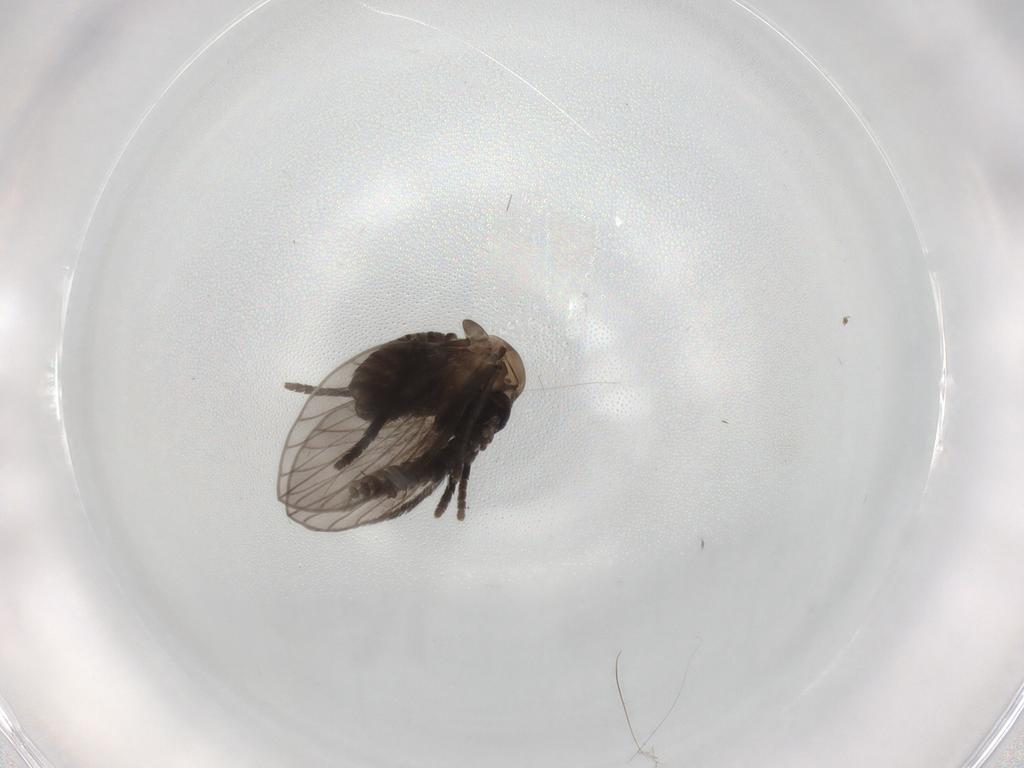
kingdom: Animalia
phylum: Arthropoda
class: Insecta
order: Diptera
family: Psychodidae
